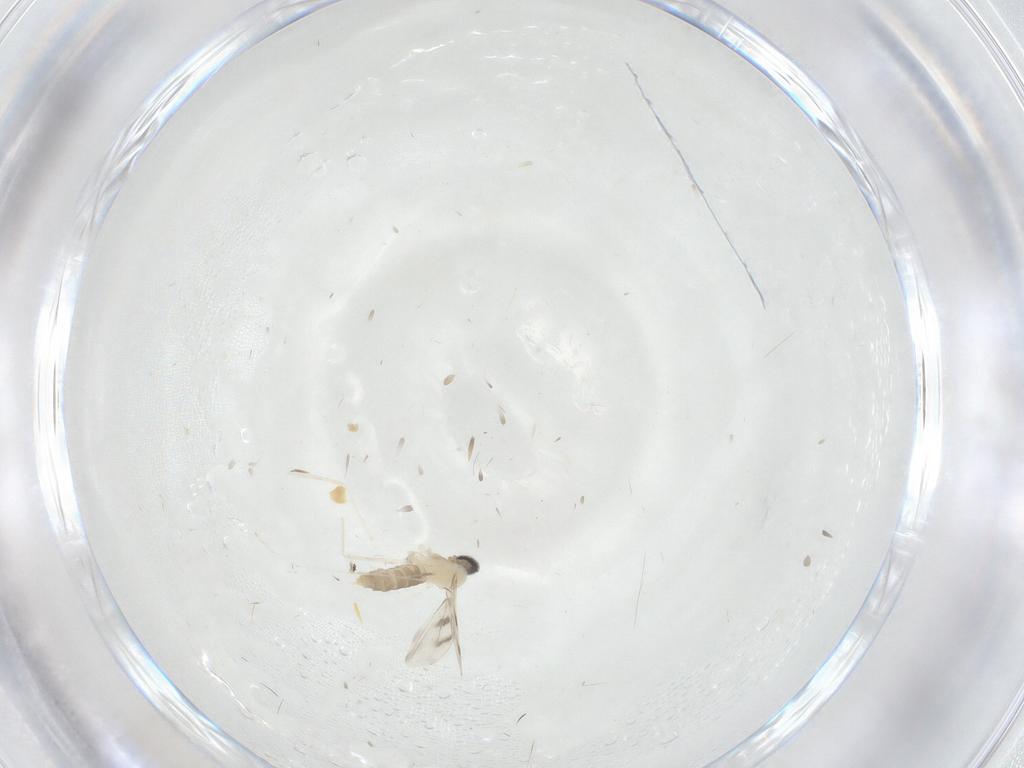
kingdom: Animalia
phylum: Arthropoda
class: Insecta
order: Diptera
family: Cecidomyiidae
